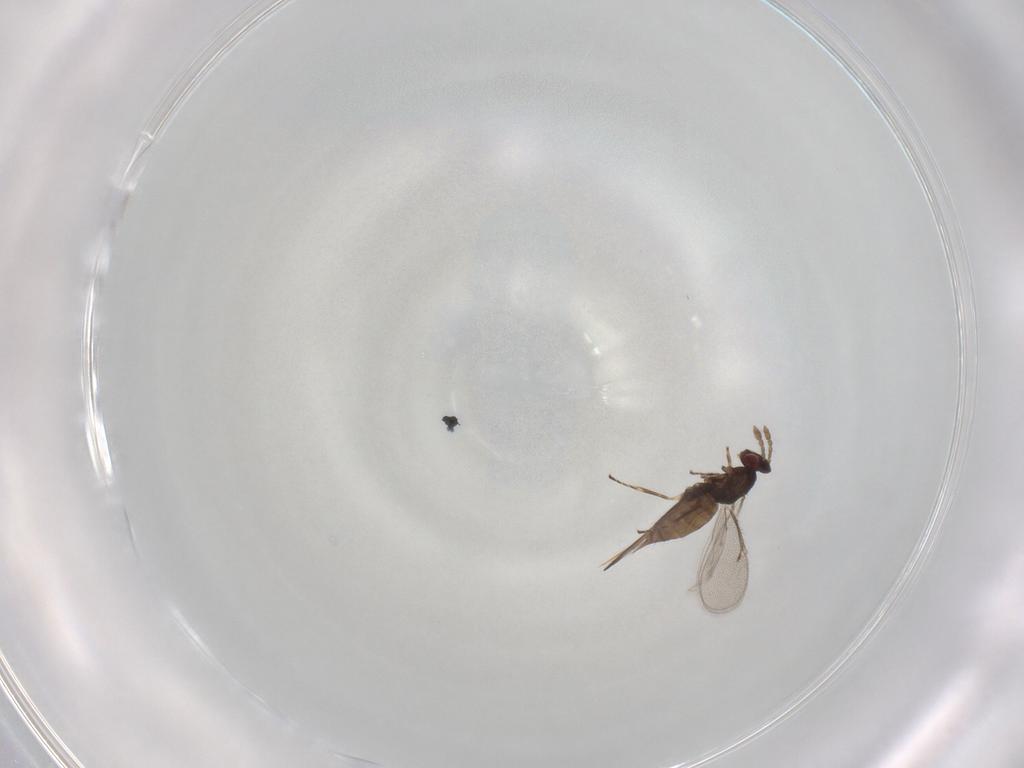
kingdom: Animalia
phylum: Arthropoda
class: Insecta
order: Hymenoptera
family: Eulophidae
